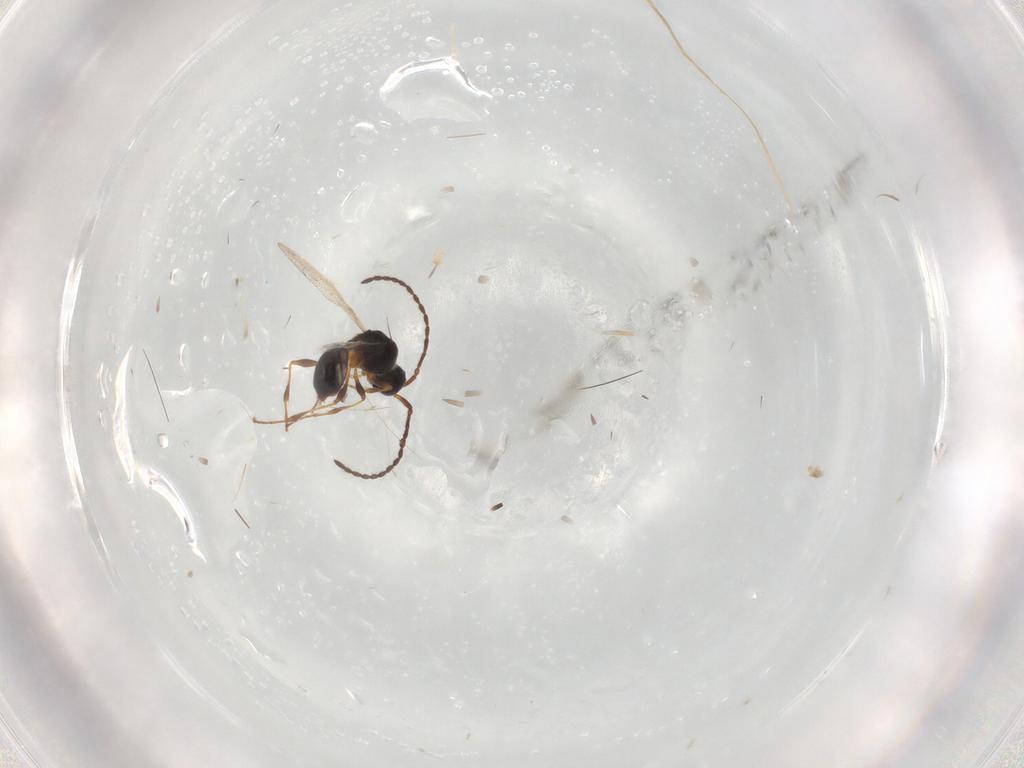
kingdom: Animalia
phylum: Arthropoda
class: Insecta
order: Hymenoptera
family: Diapriidae
